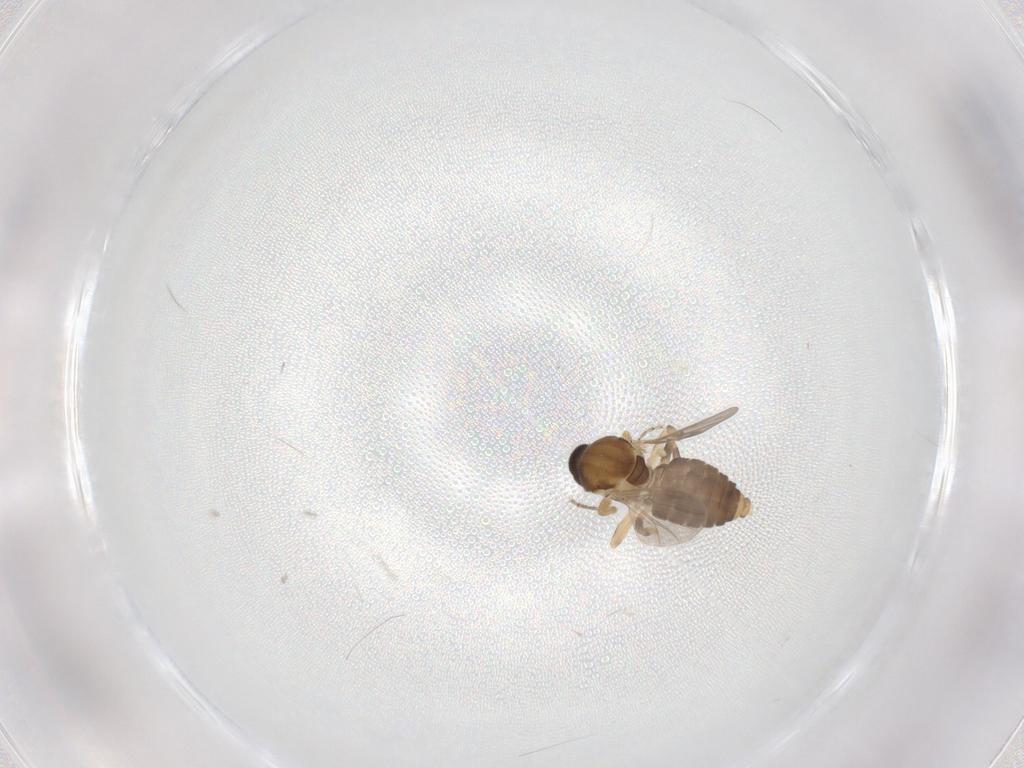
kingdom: Animalia
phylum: Arthropoda
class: Insecta
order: Diptera
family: Ceratopogonidae
